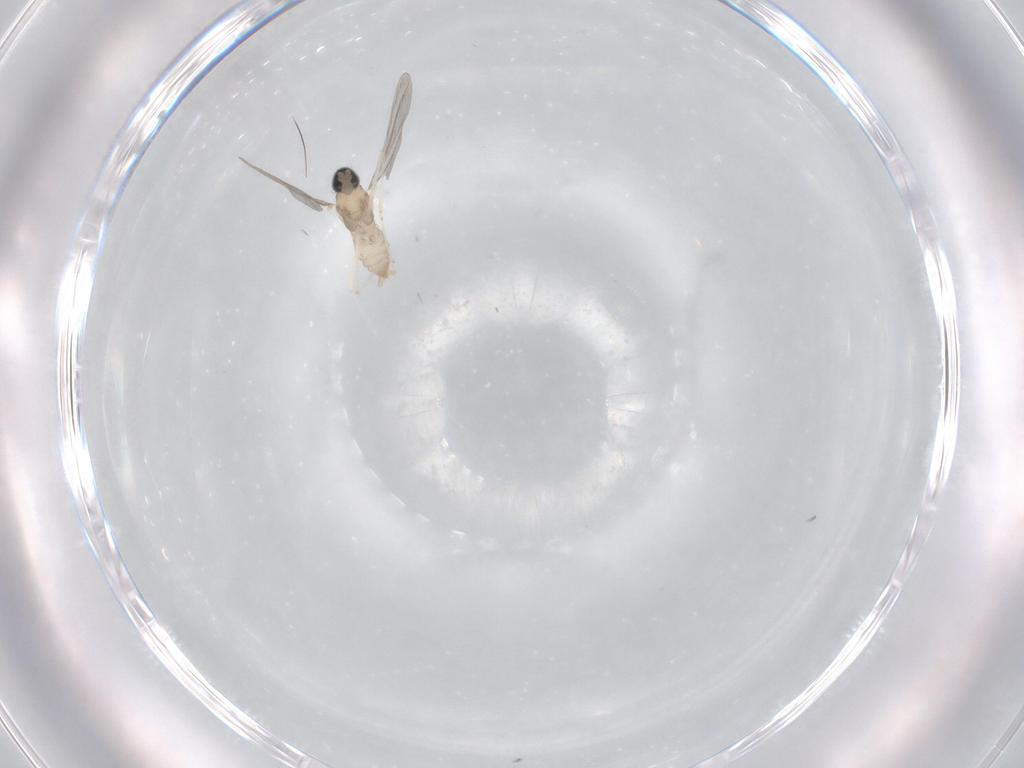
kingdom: Animalia
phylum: Arthropoda
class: Insecta
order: Diptera
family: Cecidomyiidae
